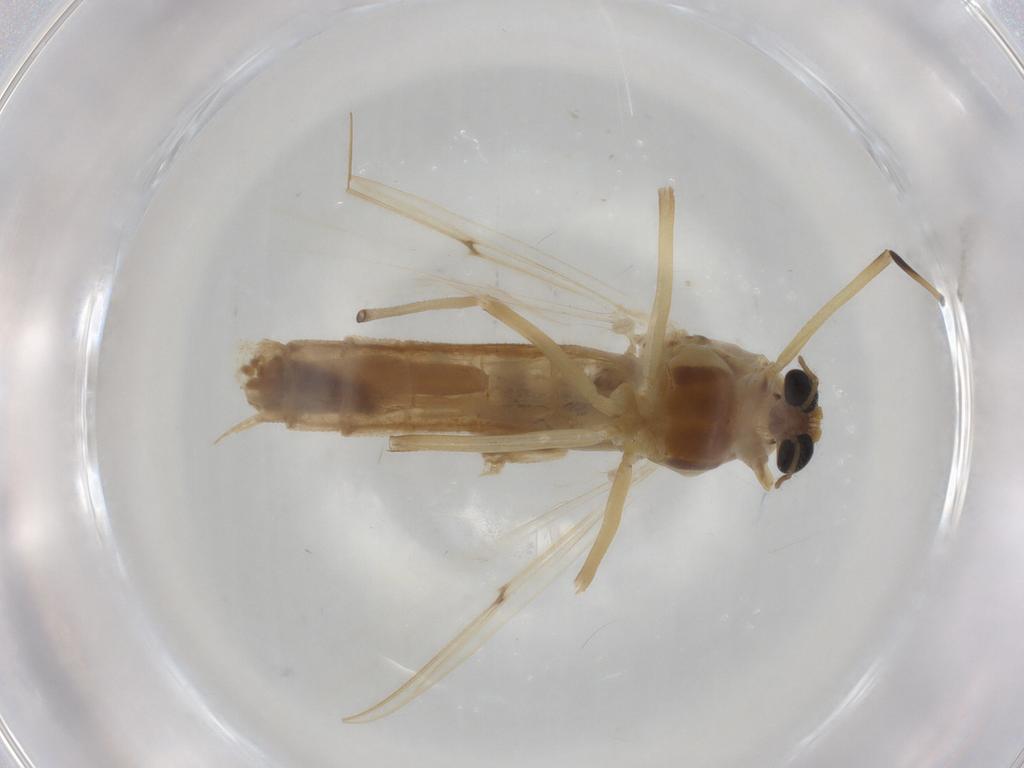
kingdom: Animalia
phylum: Arthropoda
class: Insecta
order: Diptera
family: Chironomidae
